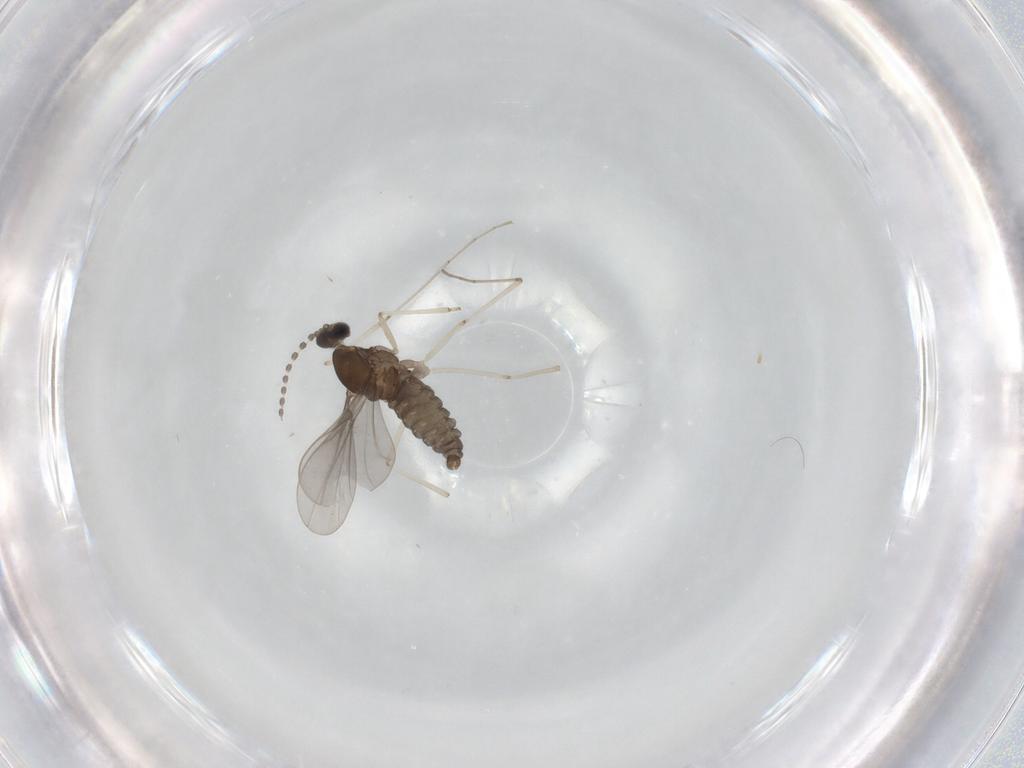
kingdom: Animalia
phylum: Arthropoda
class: Insecta
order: Diptera
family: Cecidomyiidae
